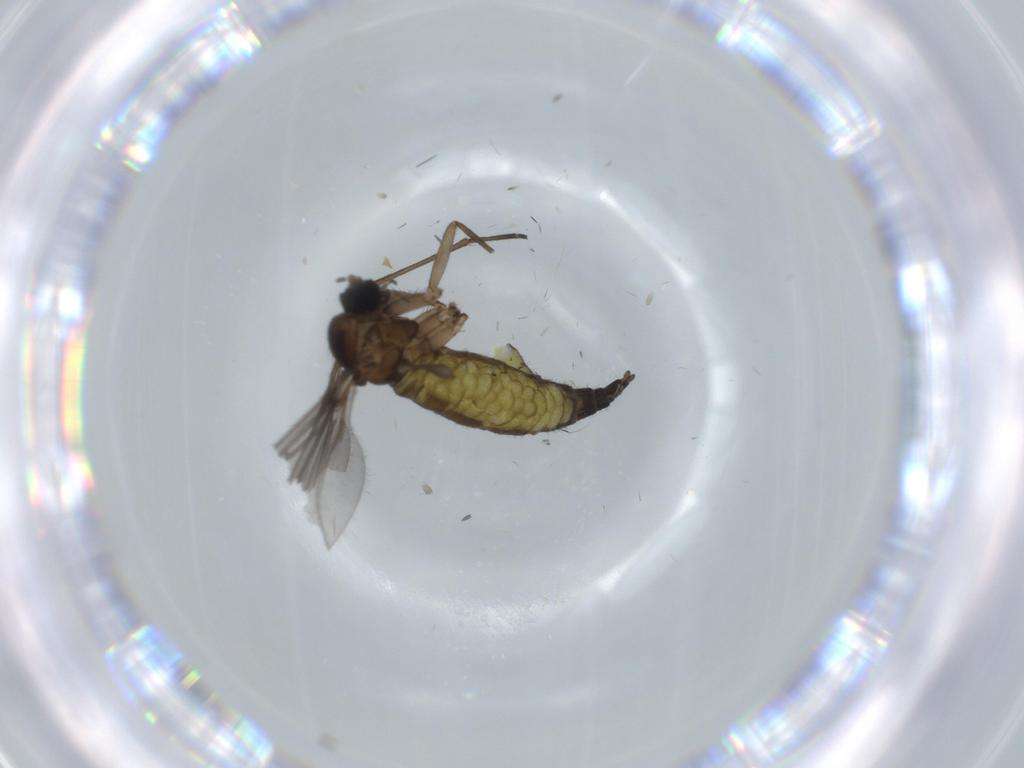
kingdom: Animalia
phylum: Arthropoda
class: Insecta
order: Diptera
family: Sciaridae
